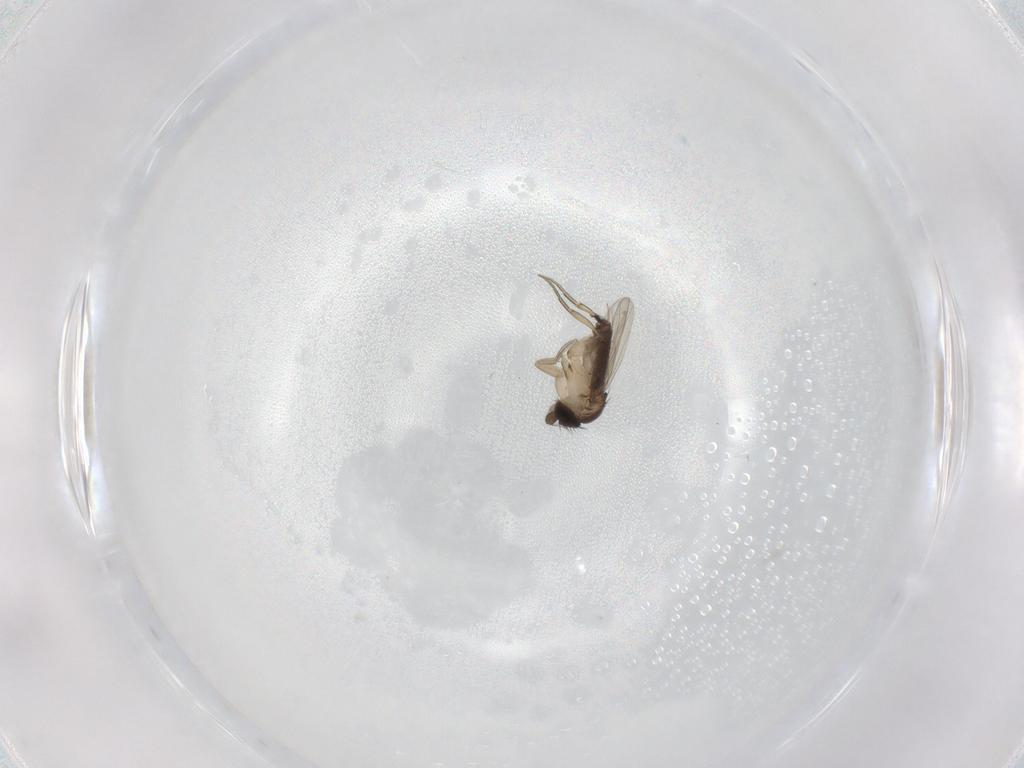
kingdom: Animalia
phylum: Arthropoda
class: Insecta
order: Diptera
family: Phoridae
